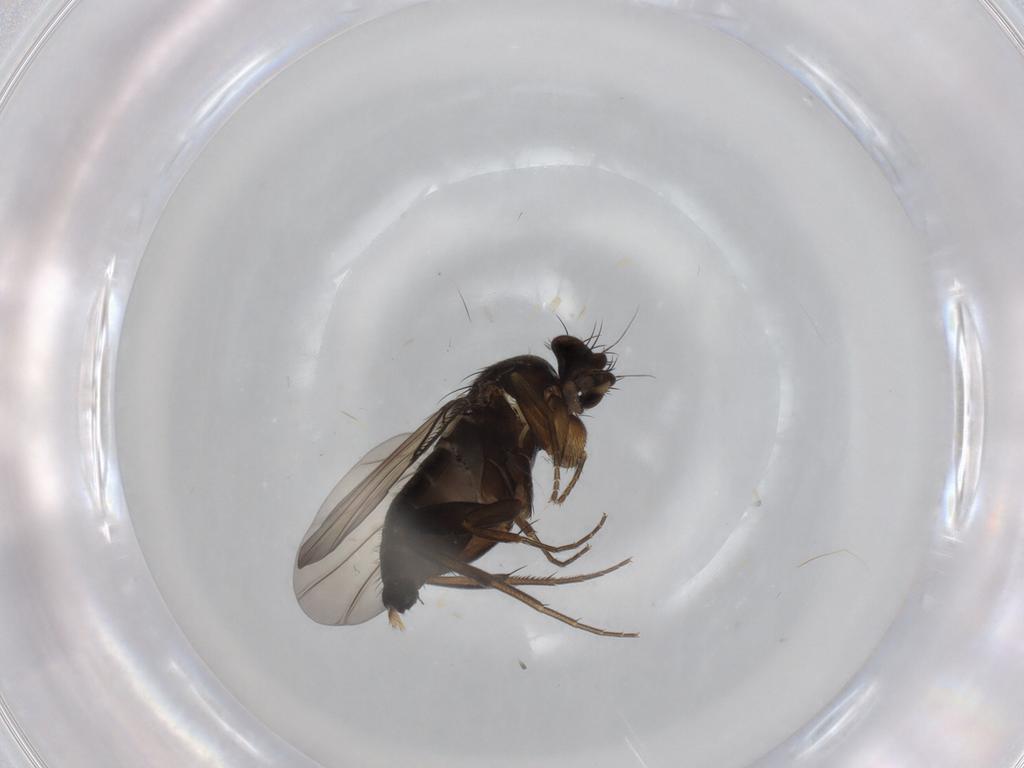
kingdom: Animalia
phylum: Arthropoda
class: Insecta
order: Diptera
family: Phoridae
